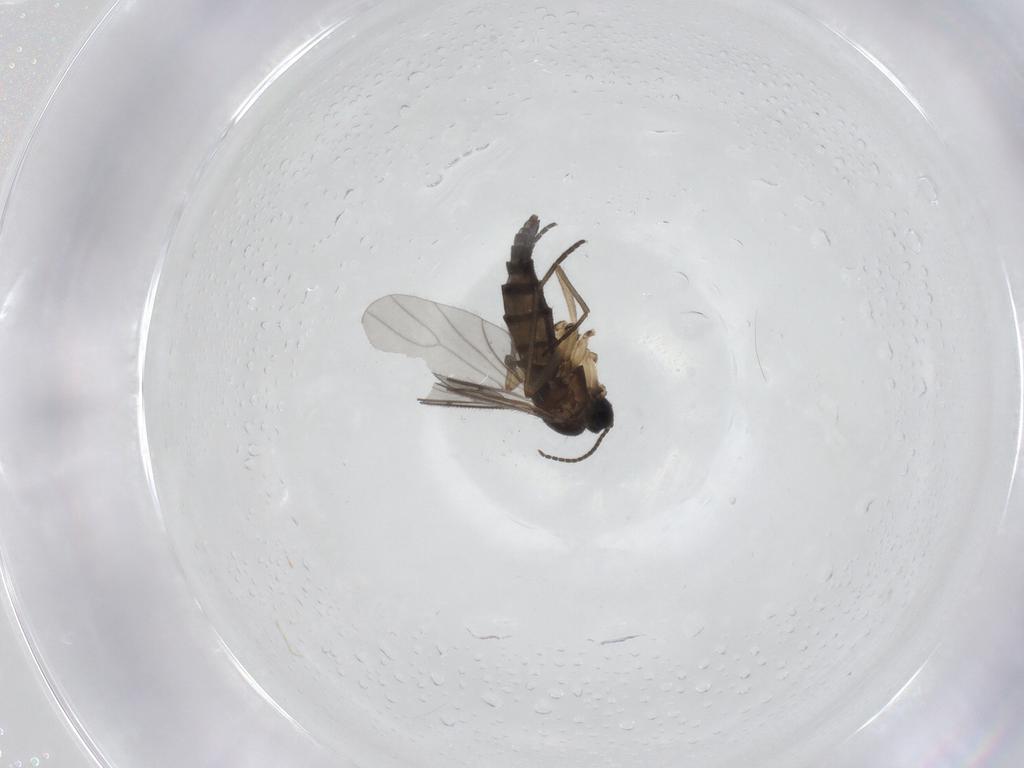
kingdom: Animalia
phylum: Arthropoda
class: Insecta
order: Diptera
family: Sciaridae
